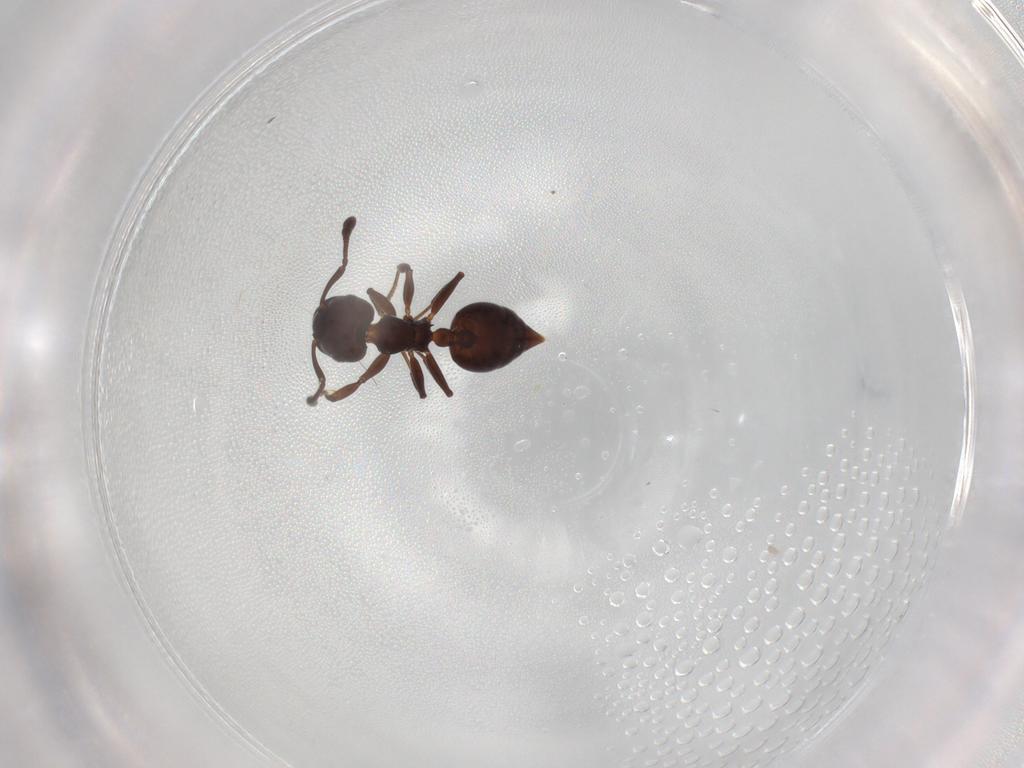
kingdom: Animalia
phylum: Arthropoda
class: Insecta
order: Hymenoptera
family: Formicidae
